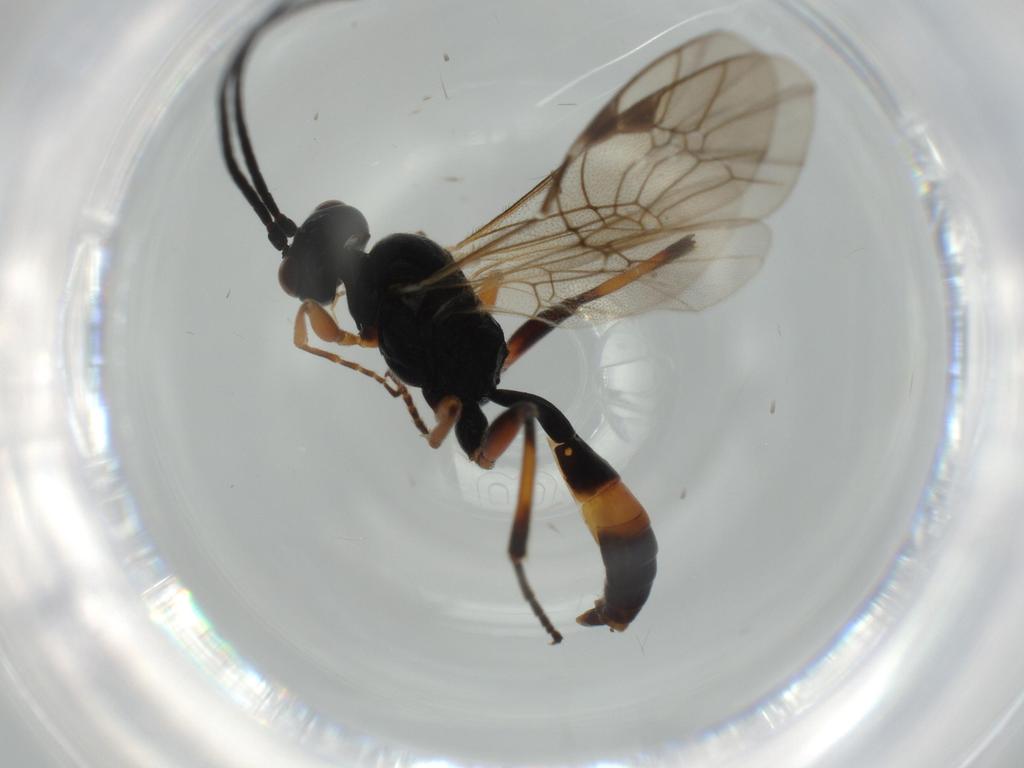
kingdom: Animalia
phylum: Arthropoda
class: Insecta
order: Hymenoptera
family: Ichneumonidae
